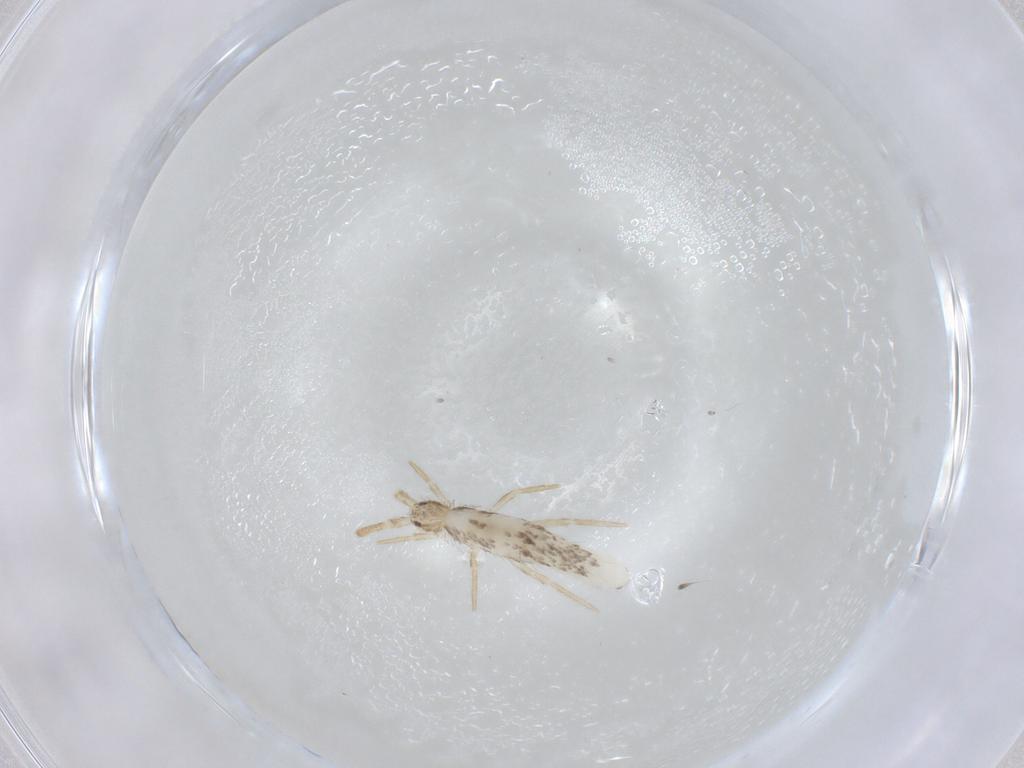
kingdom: Animalia
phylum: Arthropoda
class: Collembola
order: Entomobryomorpha
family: Entomobryidae
